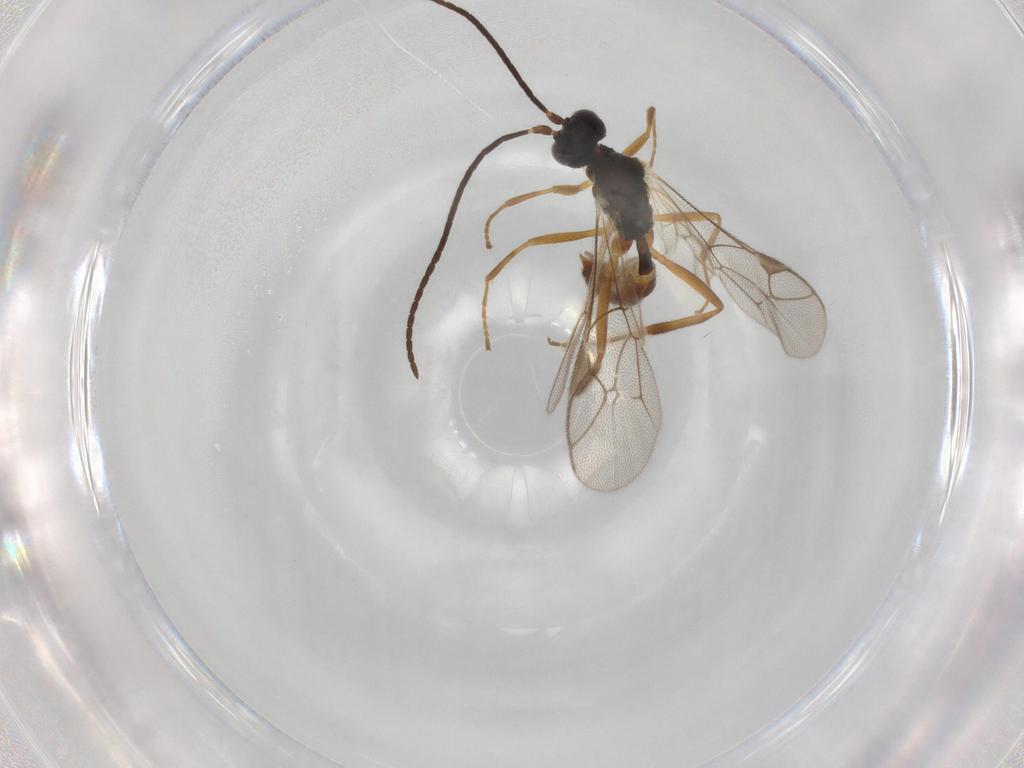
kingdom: Animalia
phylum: Arthropoda
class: Insecta
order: Hymenoptera
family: Ichneumonidae
